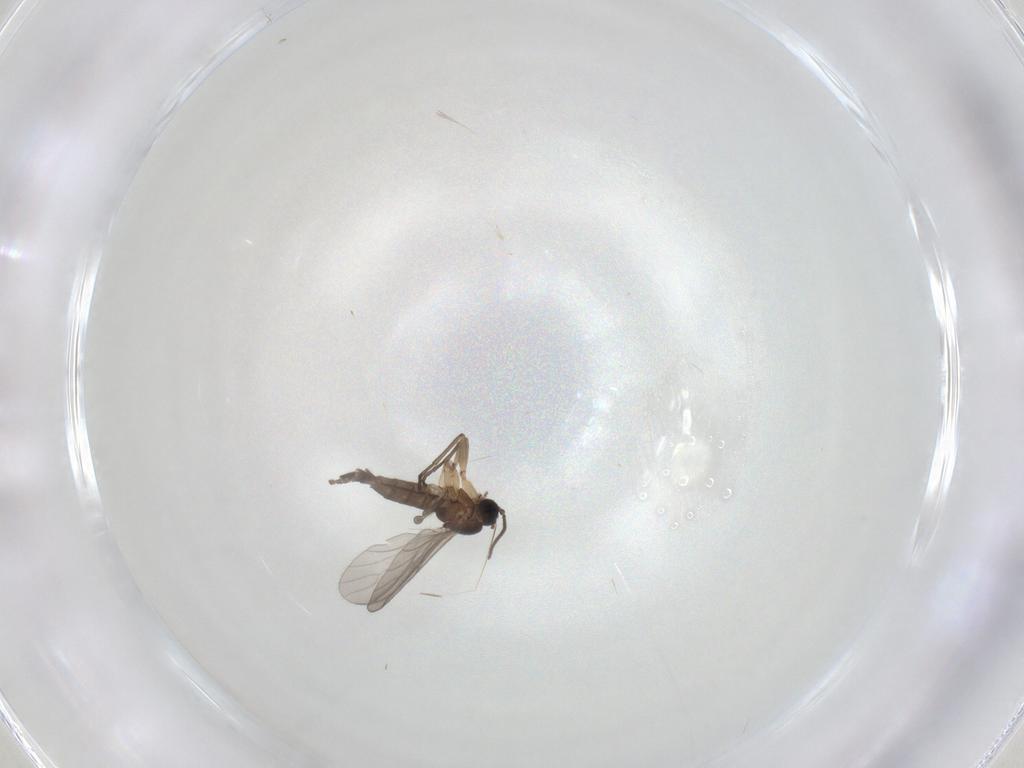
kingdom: Animalia
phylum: Arthropoda
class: Insecta
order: Diptera
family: Sciaridae
